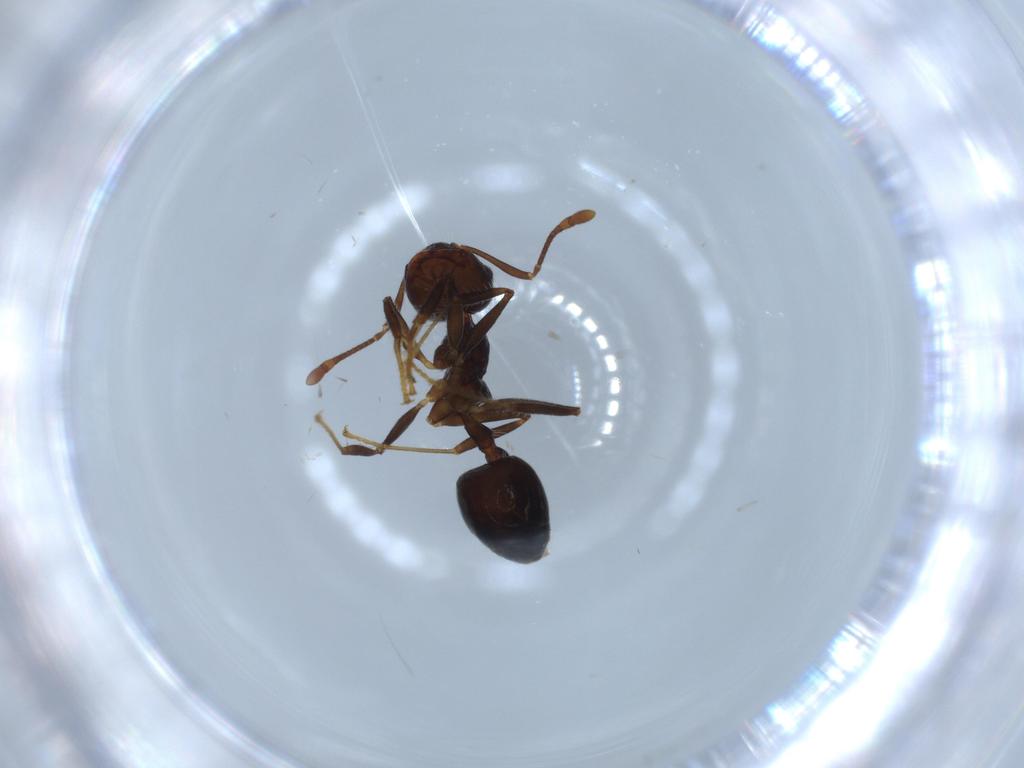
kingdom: Animalia
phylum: Arthropoda
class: Insecta
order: Hymenoptera
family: Formicidae
